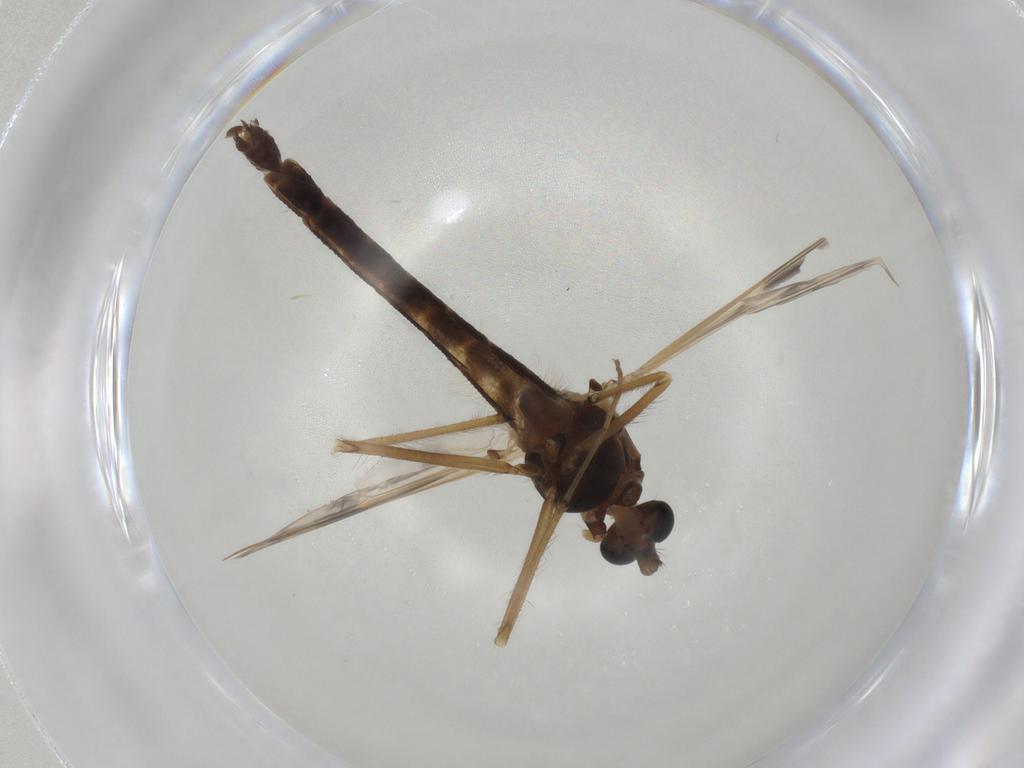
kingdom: Animalia
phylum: Arthropoda
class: Insecta
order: Diptera
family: Chironomidae
